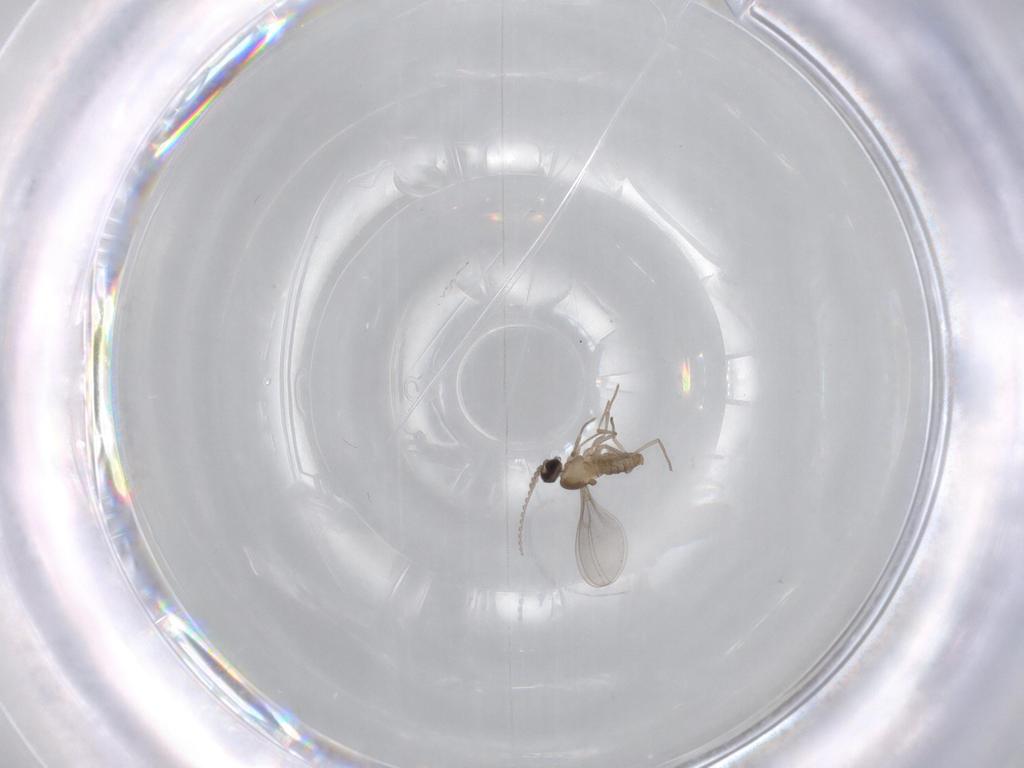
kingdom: Animalia
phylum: Arthropoda
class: Insecta
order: Diptera
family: Cecidomyiidae
